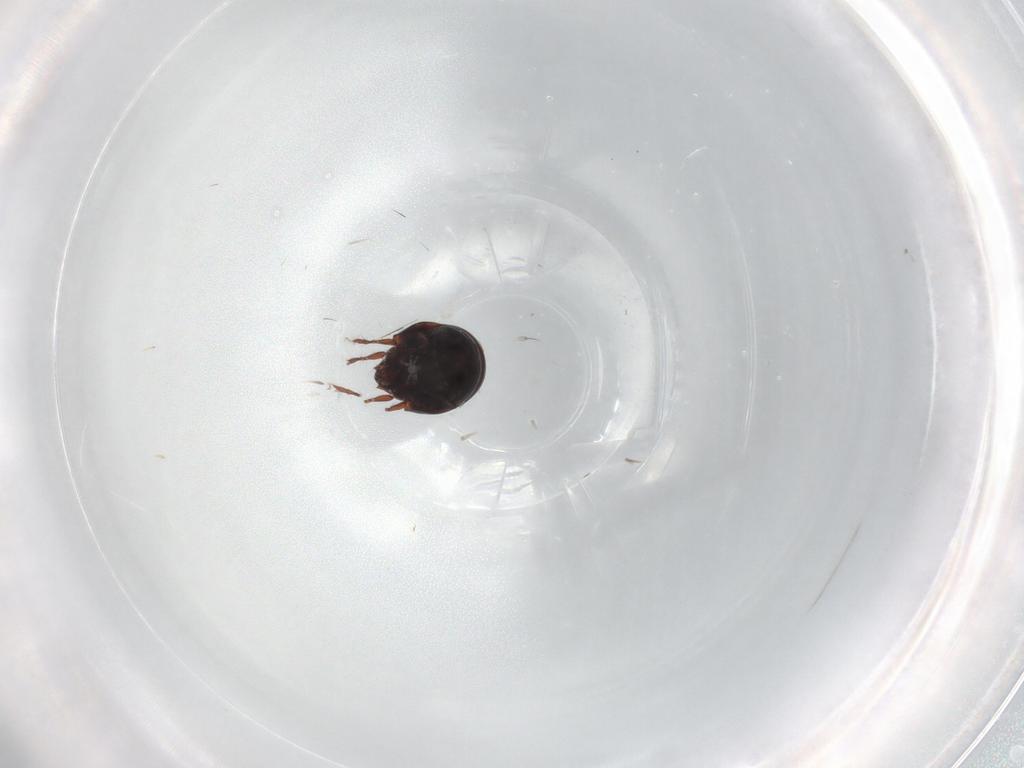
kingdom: Animalia
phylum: Arthropoda
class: Arachnida
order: Sarcoptiformes
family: Mochlozetidae
